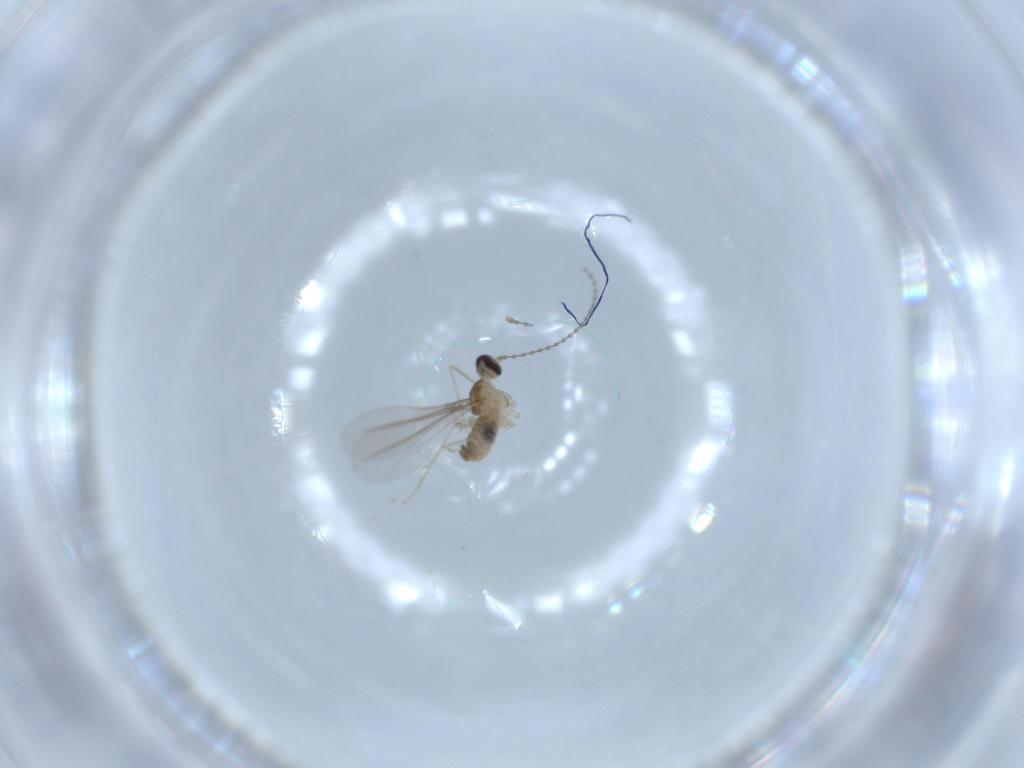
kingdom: Animalia
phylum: Arthropoda
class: Insecta
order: Diptera
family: Cecidomyiidae
